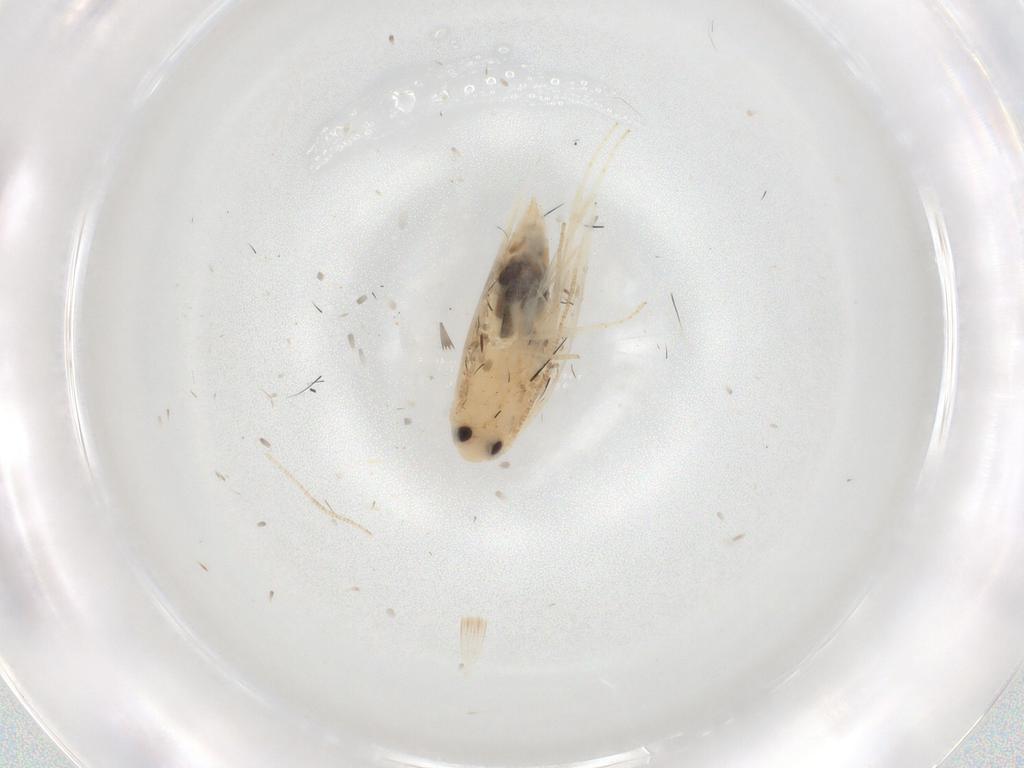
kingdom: Animalia
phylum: Arthropoda
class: Insecta
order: Lepidoptera
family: Geometridae
